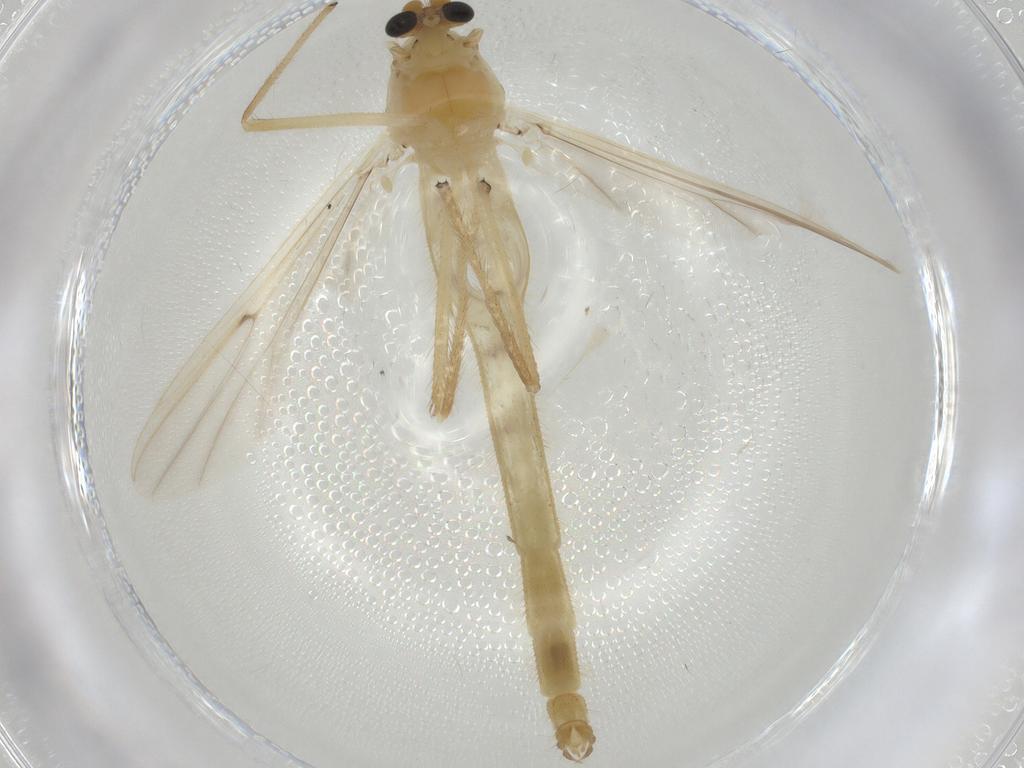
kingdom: Animalia
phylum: Arthropoda
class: Insecta
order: Diptera
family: Chironomidae
